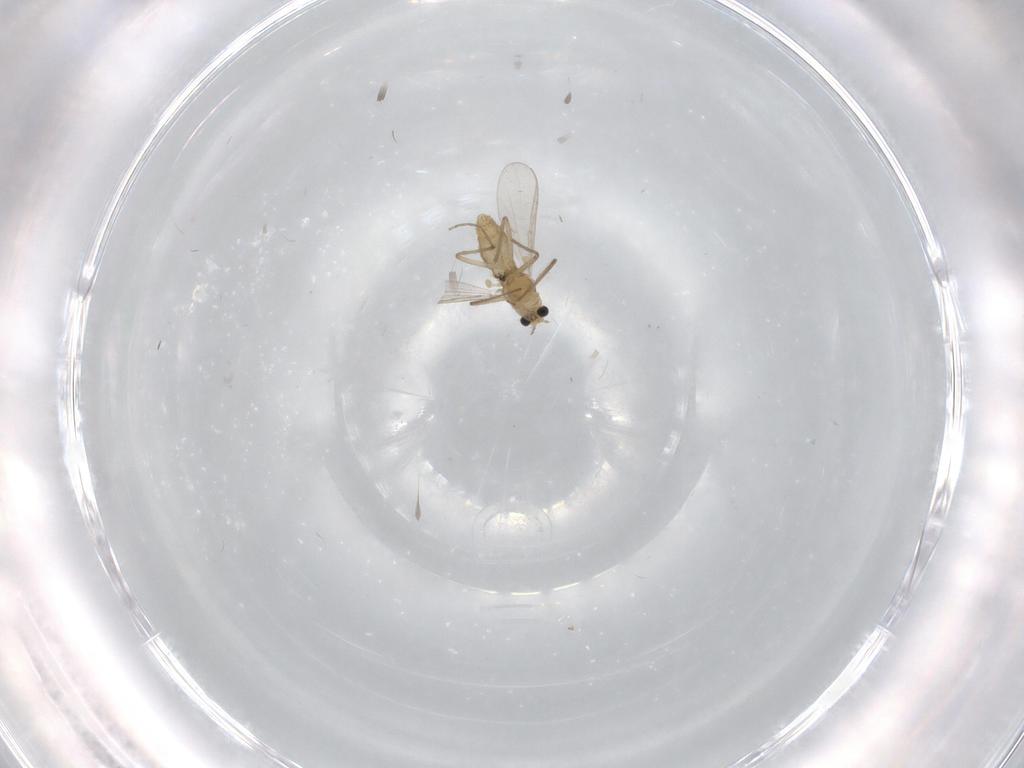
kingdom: Animalia
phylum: Arthropoda
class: Insecta
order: Diptera
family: Chironomidae
